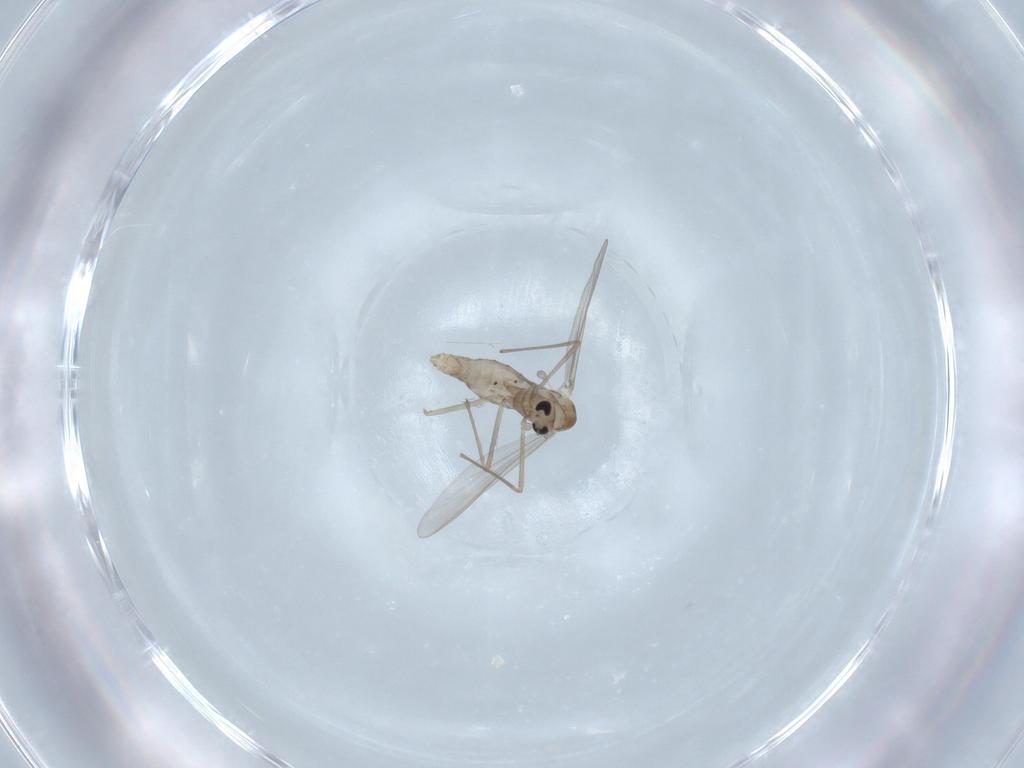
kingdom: Animalia
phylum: Arthropoda
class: Insecta
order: Diptera
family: Chironomidae
